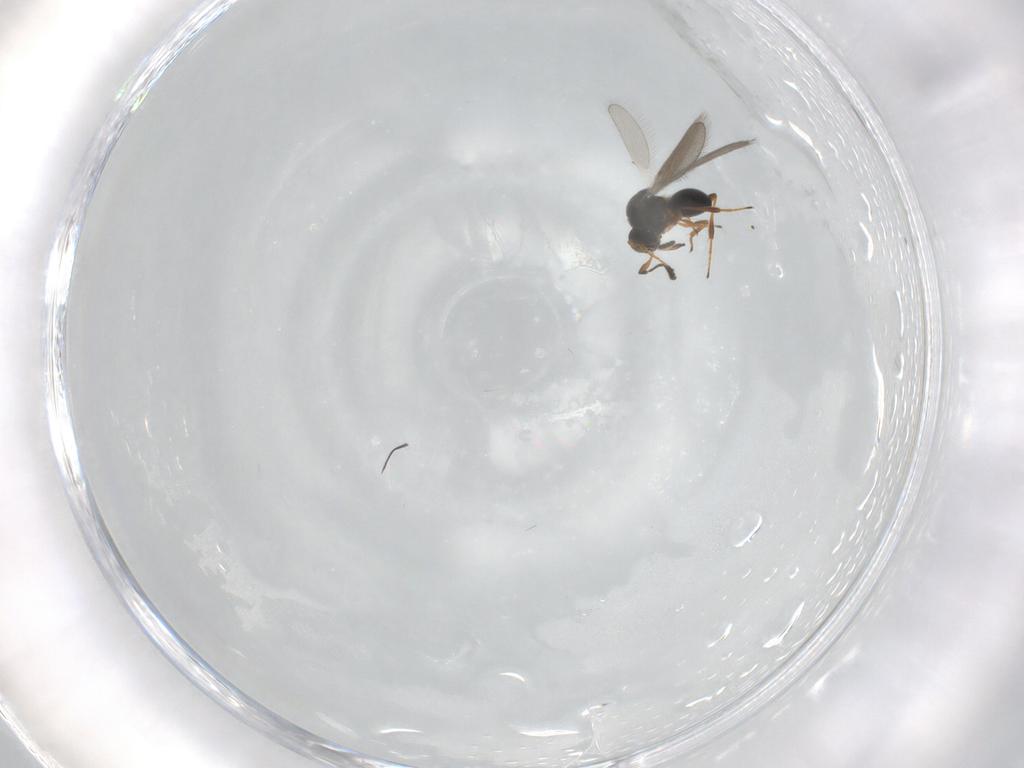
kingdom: Animalia
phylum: Arthropoda
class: Insecta
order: Hymenoptera
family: Platygastridae
